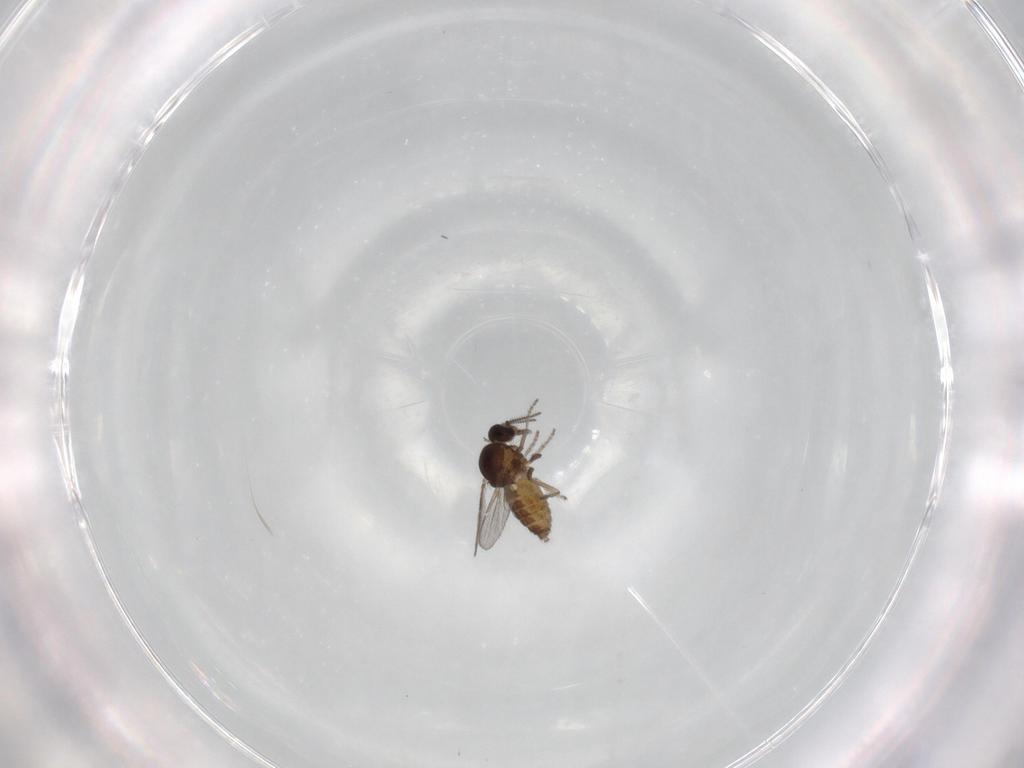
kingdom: Animalia
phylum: Arthropoda
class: Insecta
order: Diptera
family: Ceratopogonidae
